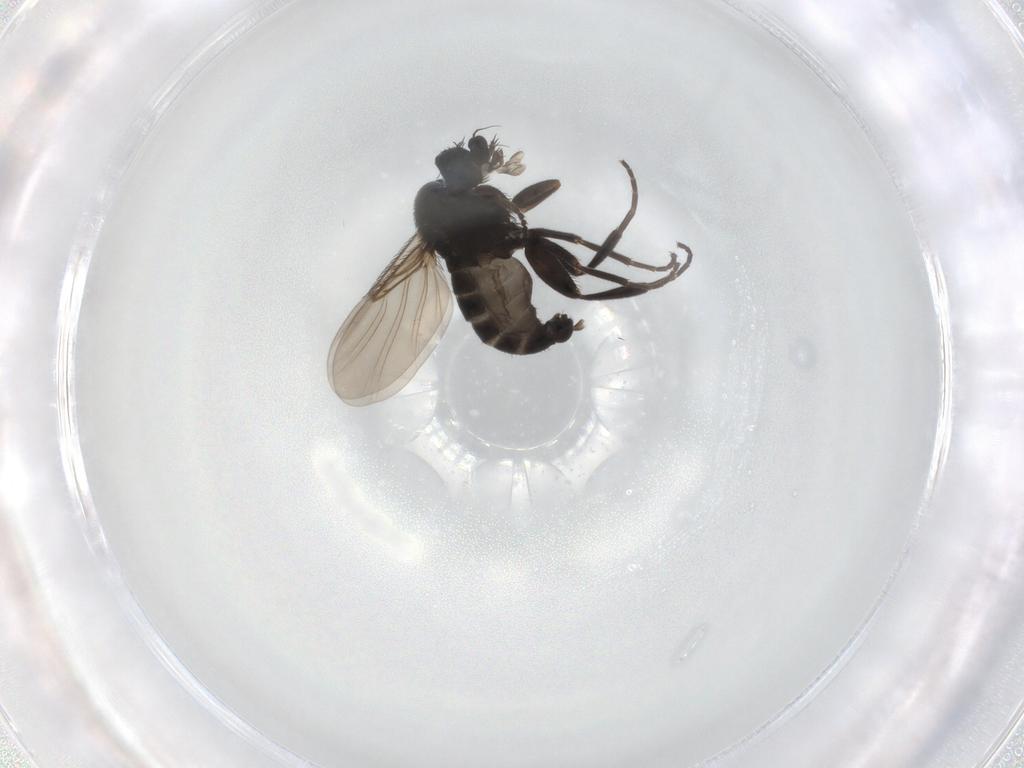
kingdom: Animalia
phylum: Arthropoda
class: Insecta
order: Diptera
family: Phoridae
